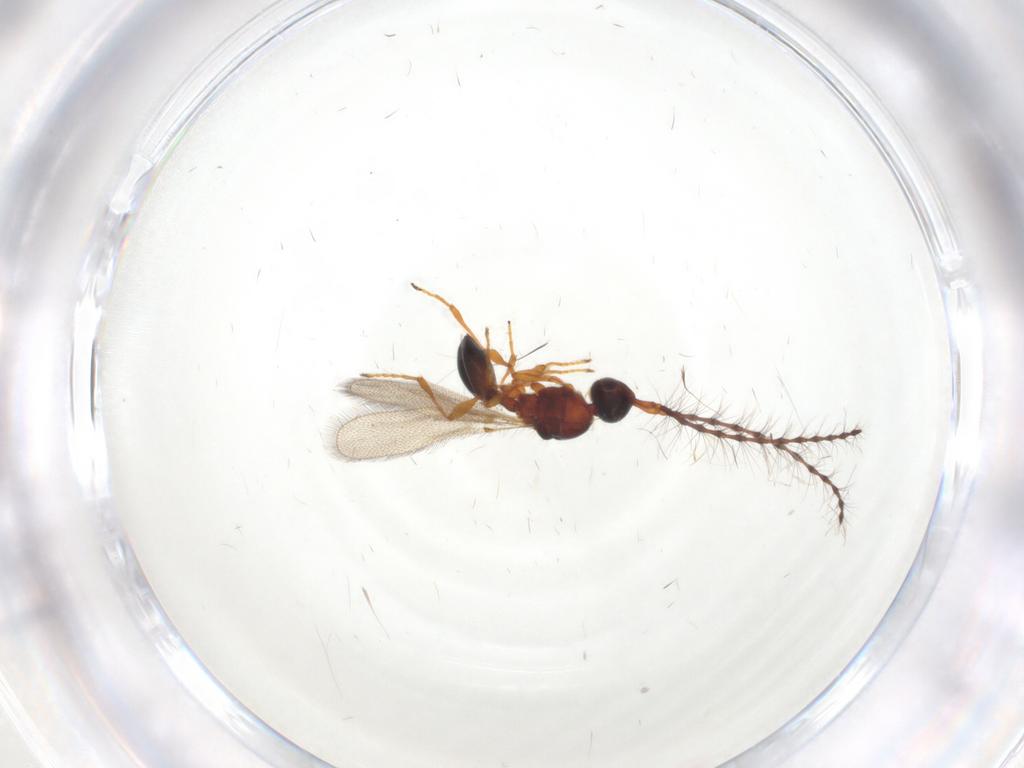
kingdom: Animalia
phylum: Arthropoda
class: Insecta
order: Hymenoptera
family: Diapriidae
